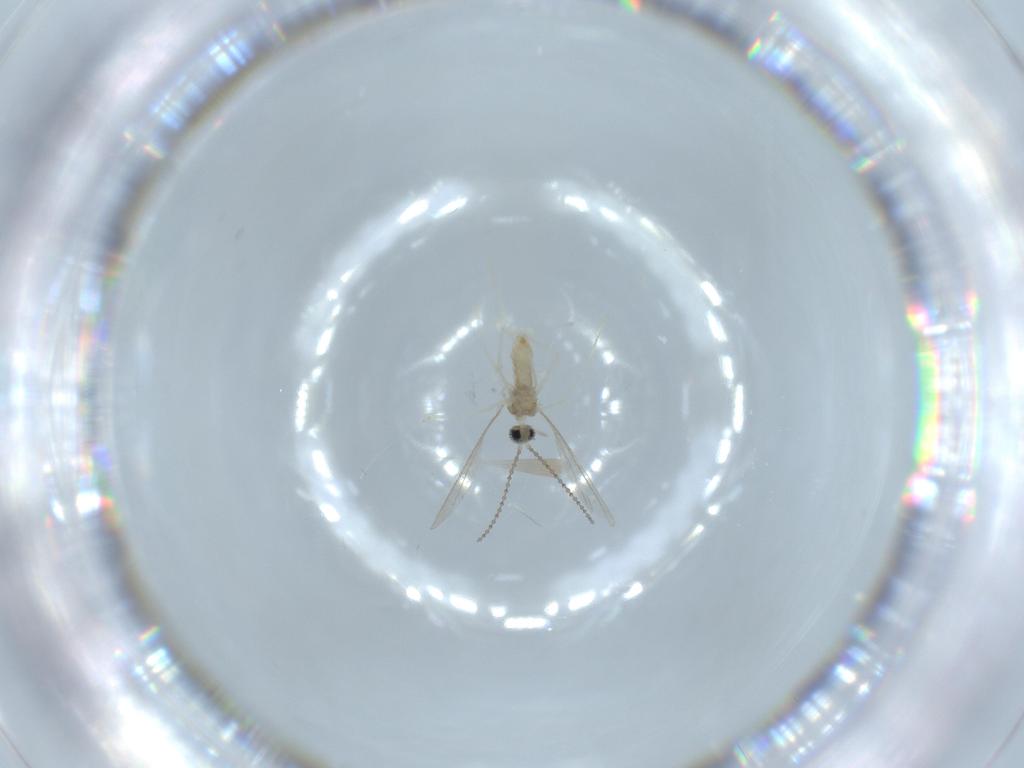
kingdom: Animalia
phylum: Arthropoda
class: Insecta
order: Diptera
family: Cecidomyiidae
